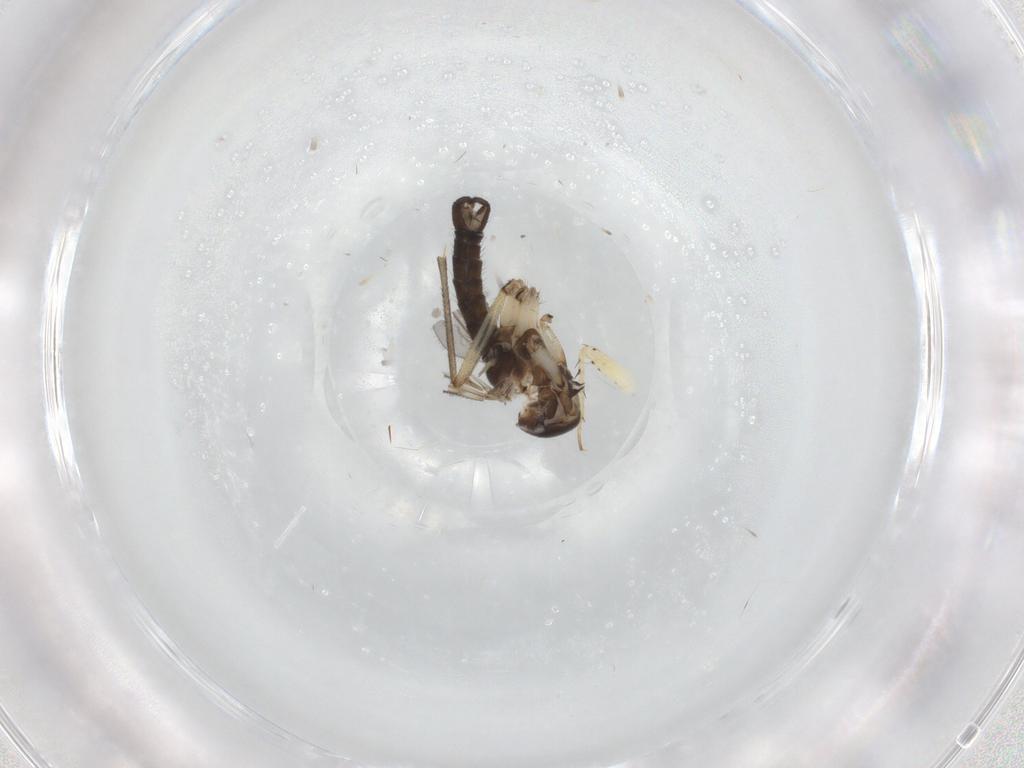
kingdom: Animalia
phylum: Arthropoda
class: Insecta
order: Diptera
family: Sciaridae
